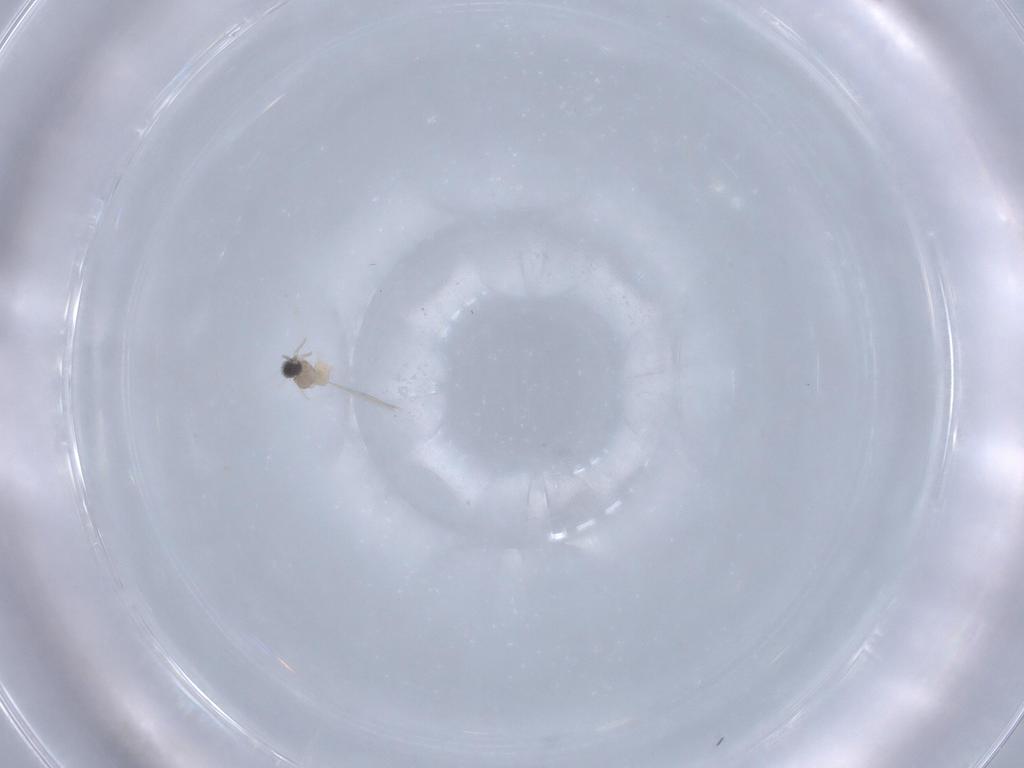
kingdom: Animalia
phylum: Arthropoda
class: Insecta
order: Diptera
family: Cecidomyiidae
